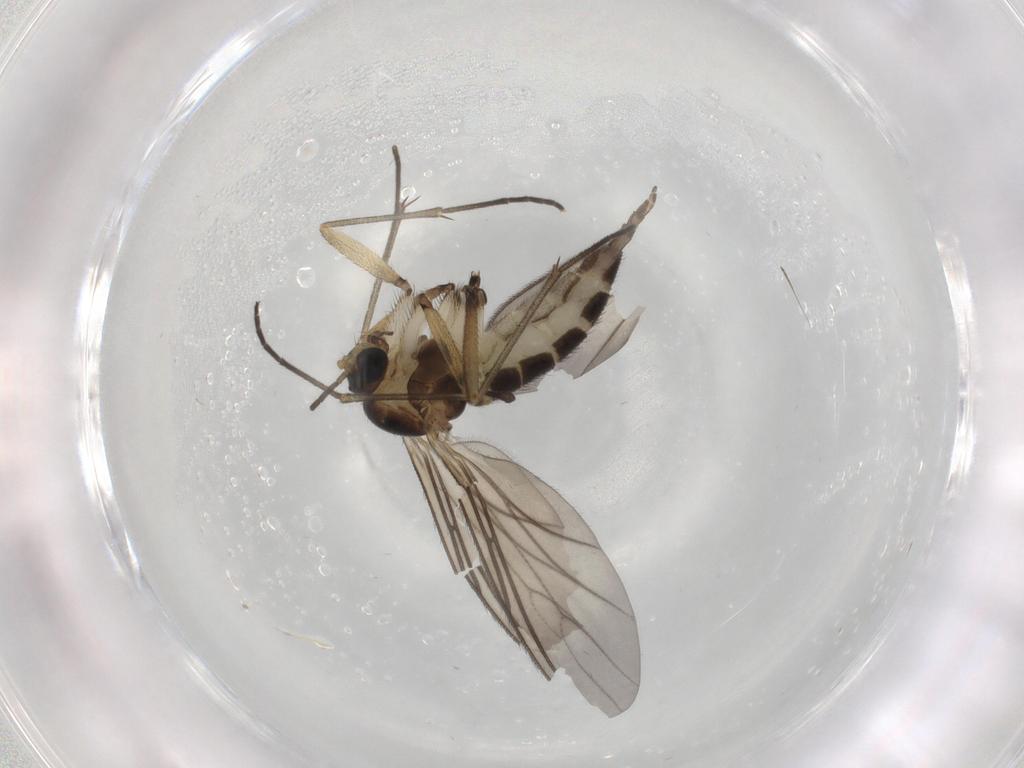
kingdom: Animalia
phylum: Arthropoda
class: Insecta
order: Diptera
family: Sciaridae
